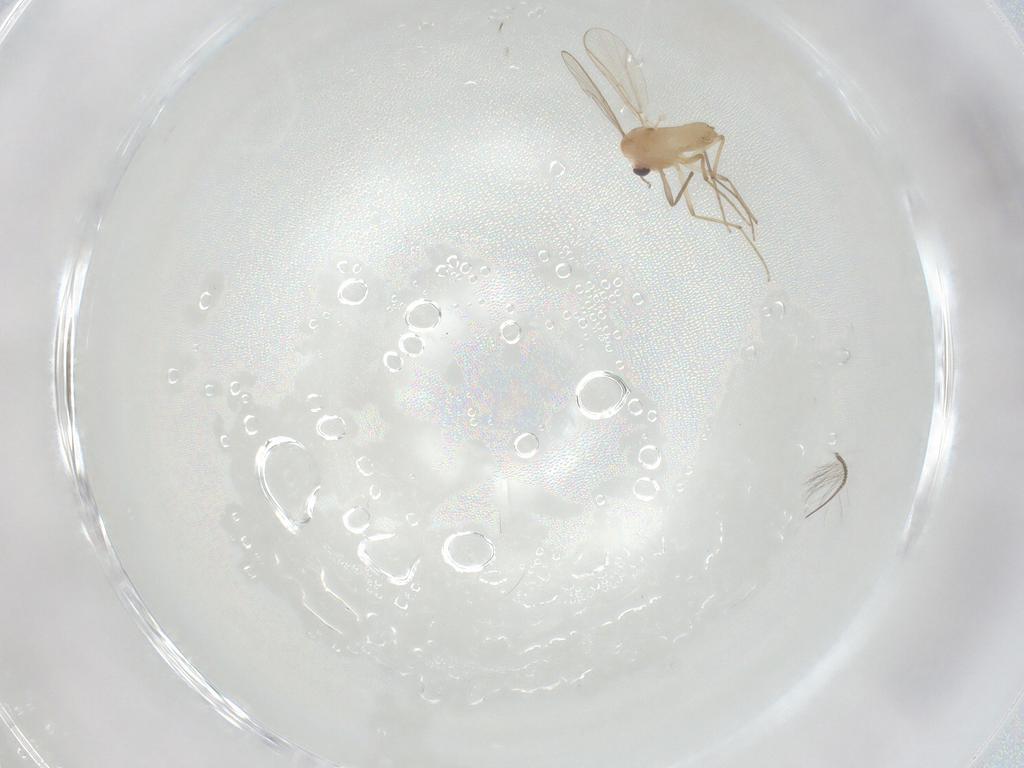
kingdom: Animalia
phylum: Arthropoda
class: Insecta
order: Diptera
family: Chironomidae
